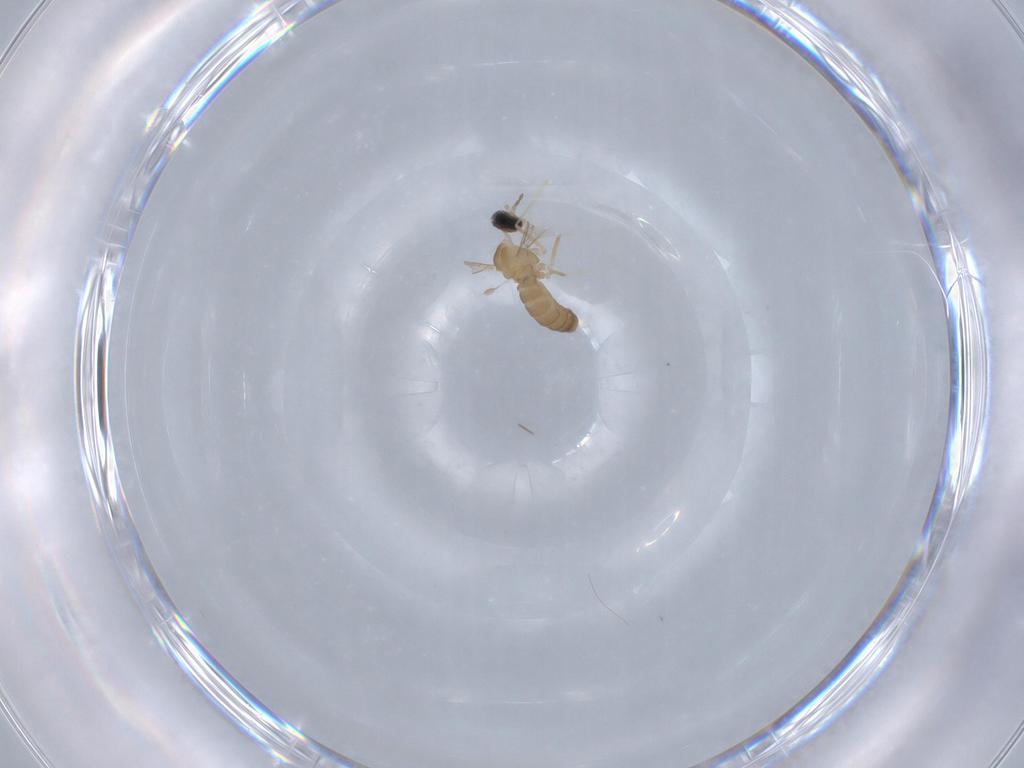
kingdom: Animalia
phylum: Arthropoda
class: Insecta
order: Diptera
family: Cecidomyiidae
